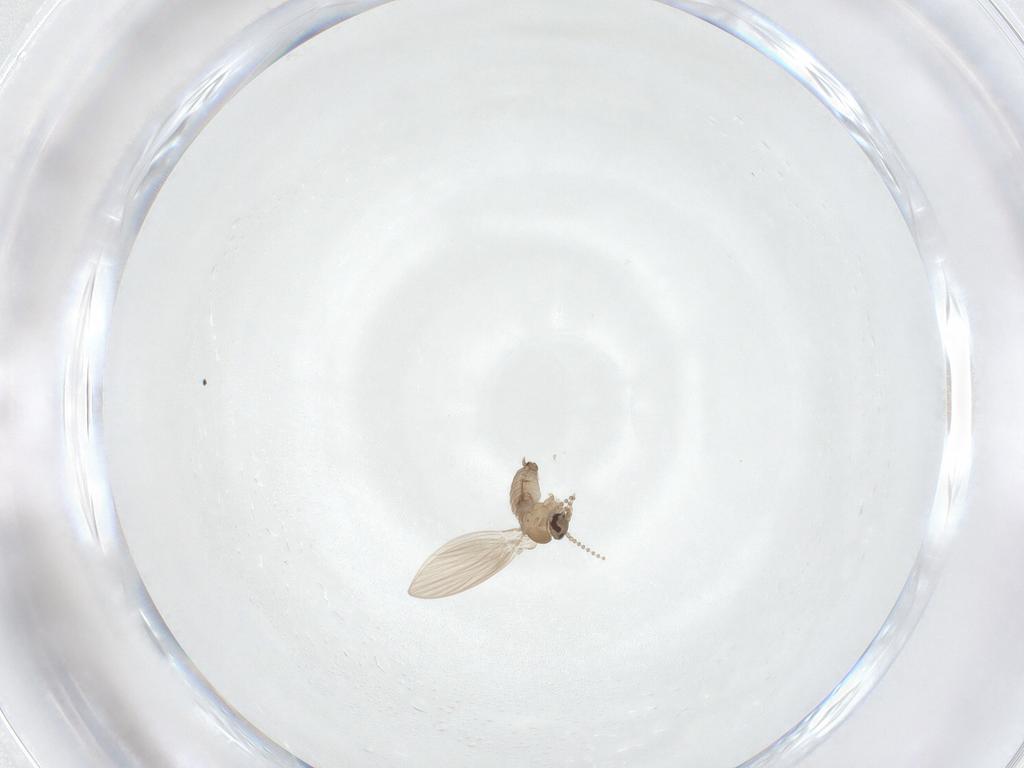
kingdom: Animalia
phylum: Arthropoda
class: Insecta
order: Diptera
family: Psychodidae
